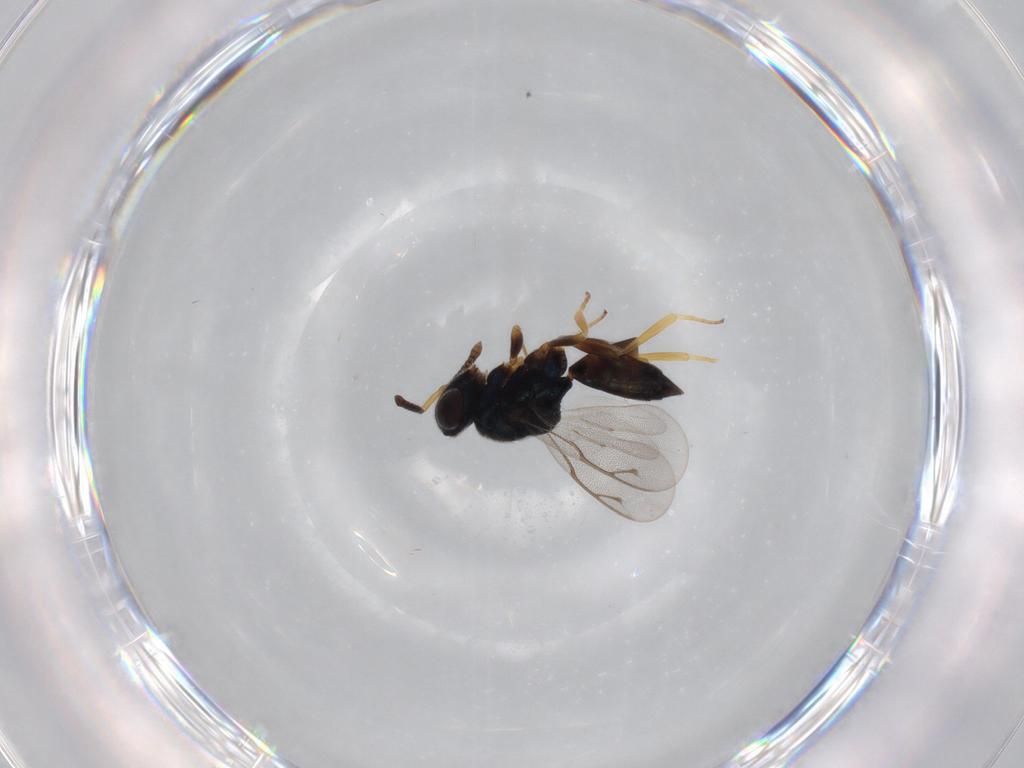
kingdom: Animalia
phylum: Arthropoda
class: Insecta
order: Hymenoptera
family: Pteromalidae
